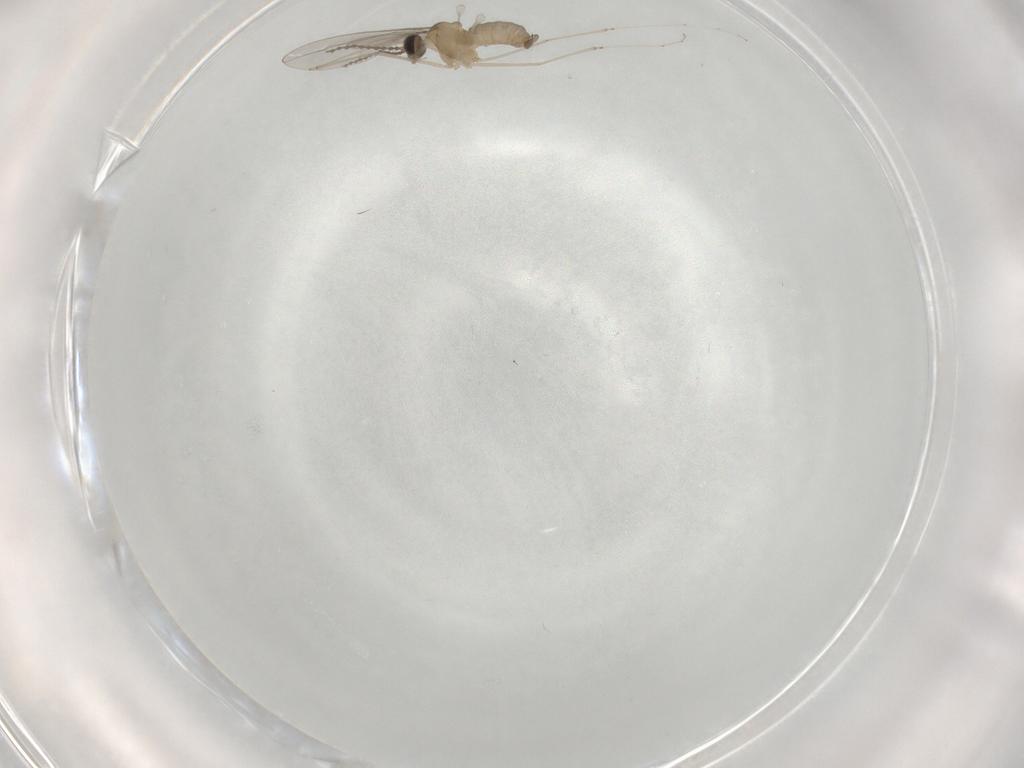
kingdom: Animalia
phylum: Arthropoda
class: Insecta
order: Diptera
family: Cecidomyiidae
